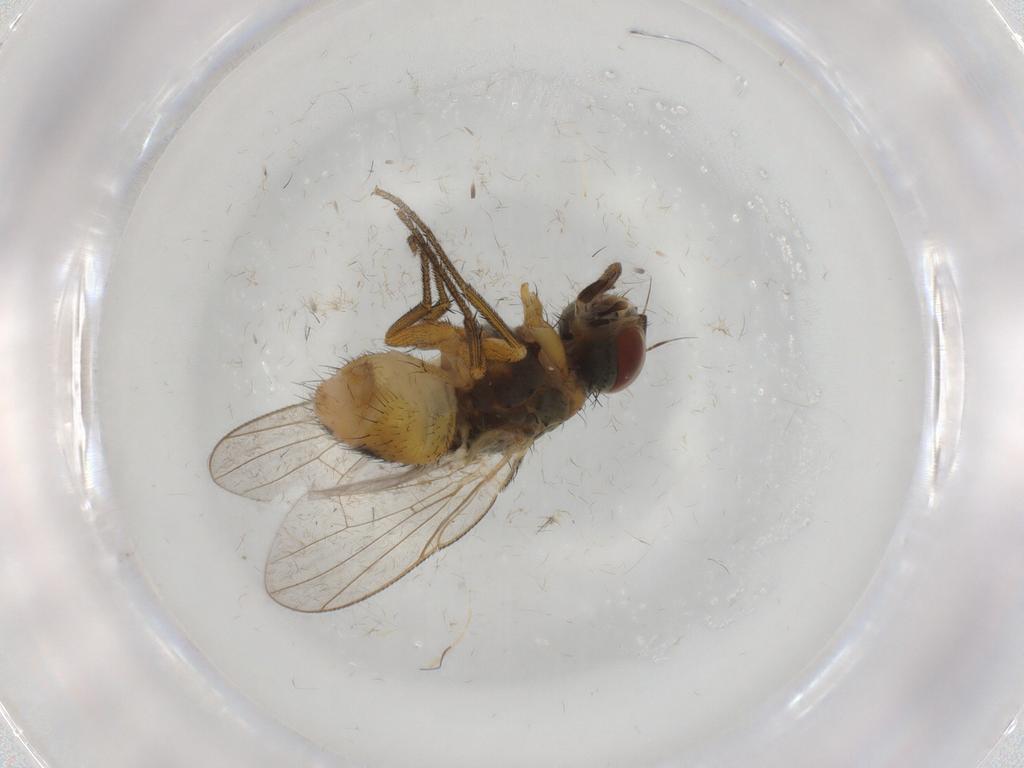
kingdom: Animalia
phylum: Arthropoda
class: Insecta
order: Diptera
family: Muscidae
